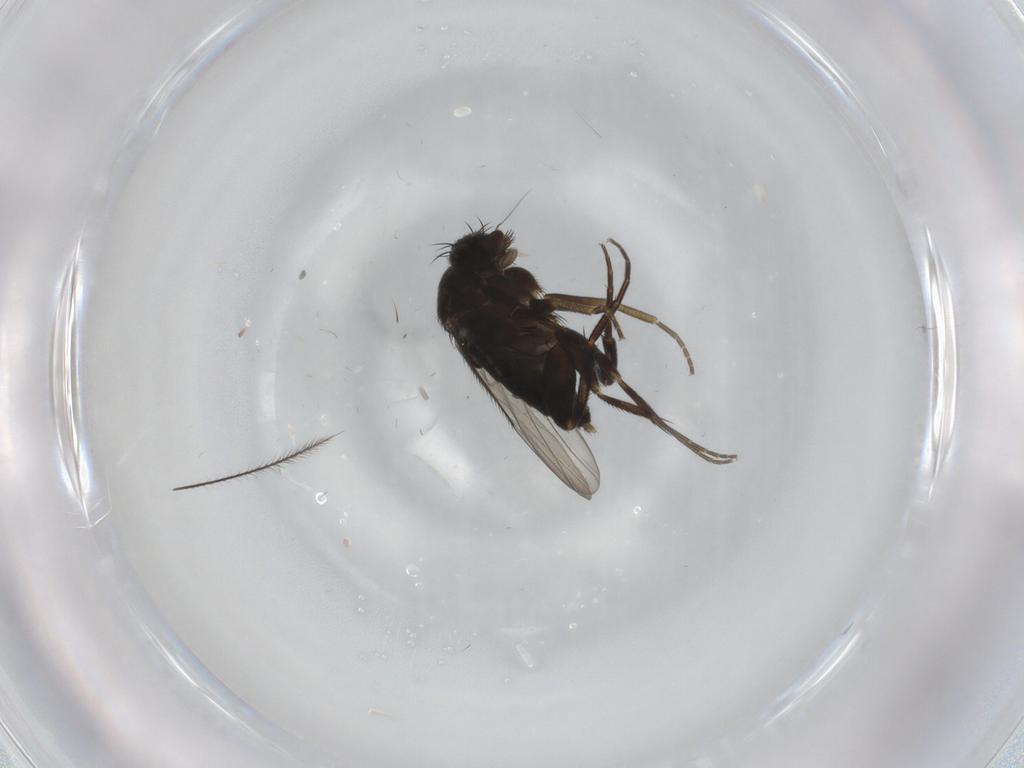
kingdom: Animalia
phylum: Arthropoda
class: Insecta
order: Diptera
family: Phoridae
